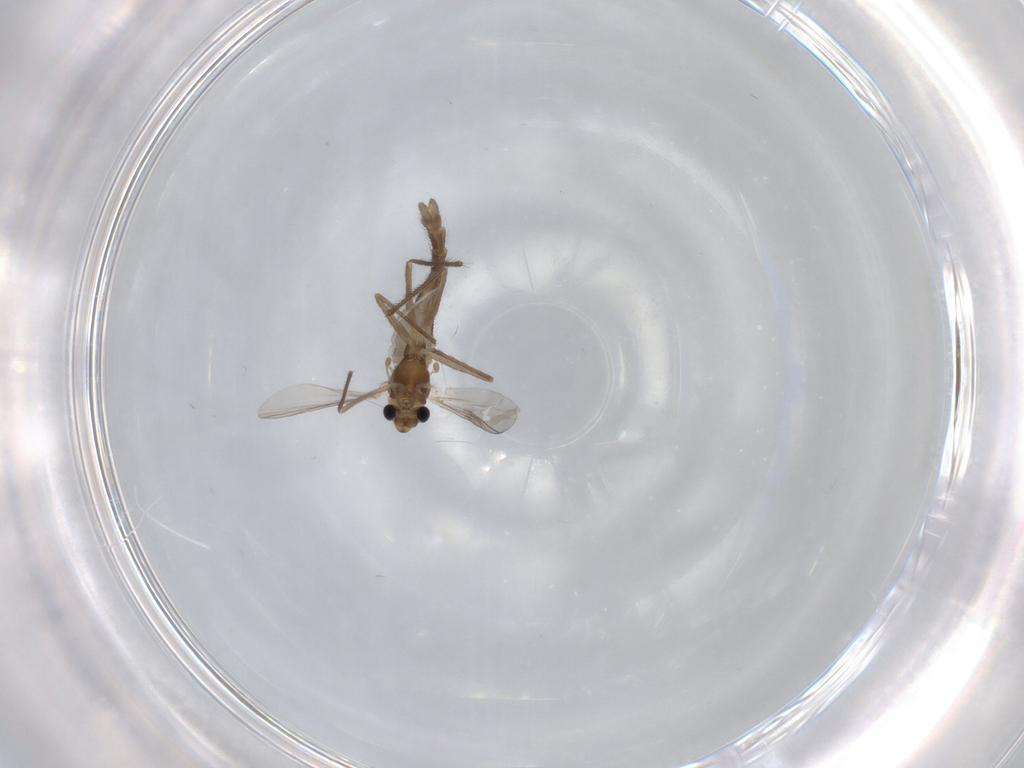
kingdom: Animalia
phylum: Arthropoda
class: Insecta
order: Diptera
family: Chironomidae
